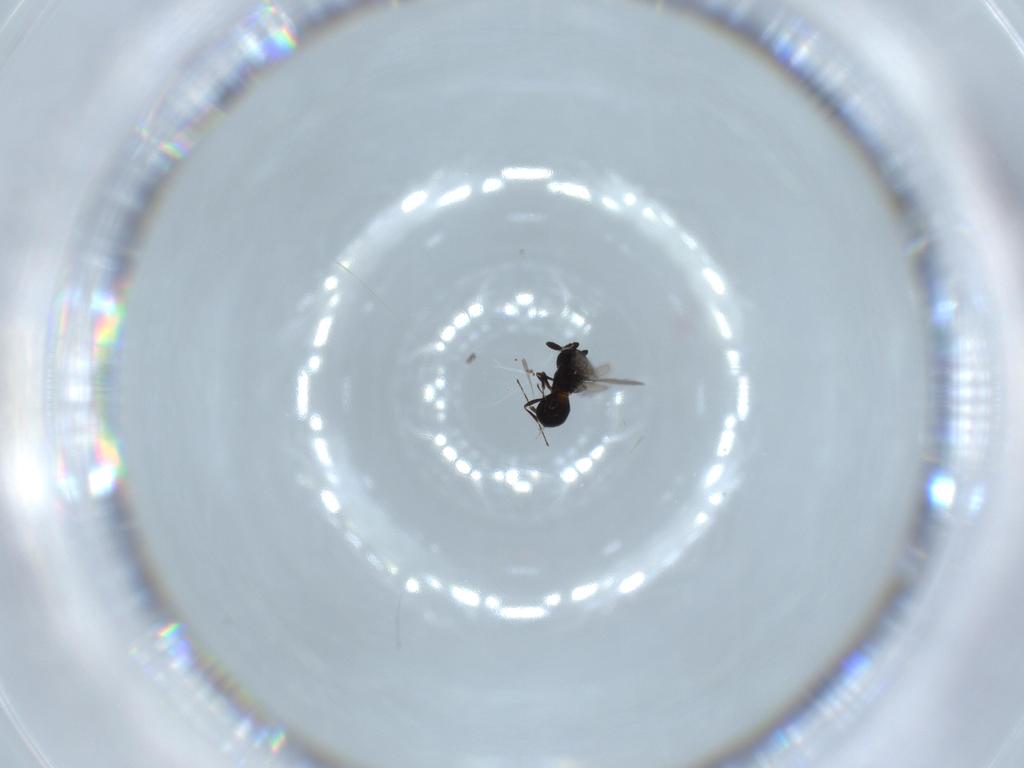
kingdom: Animalia
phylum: Arthropoda
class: Insecta
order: Hymenoptera
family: Scelionidae
